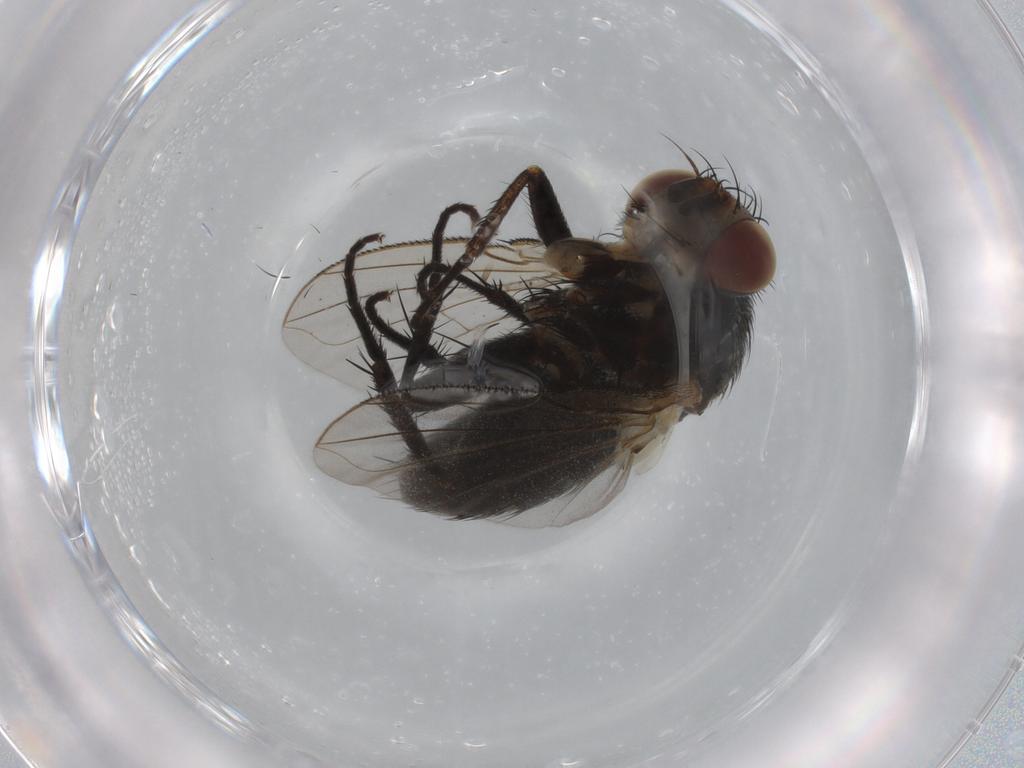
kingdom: Animalia
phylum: Arthropoda
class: Insecta
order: Diptera
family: Tachinidae
